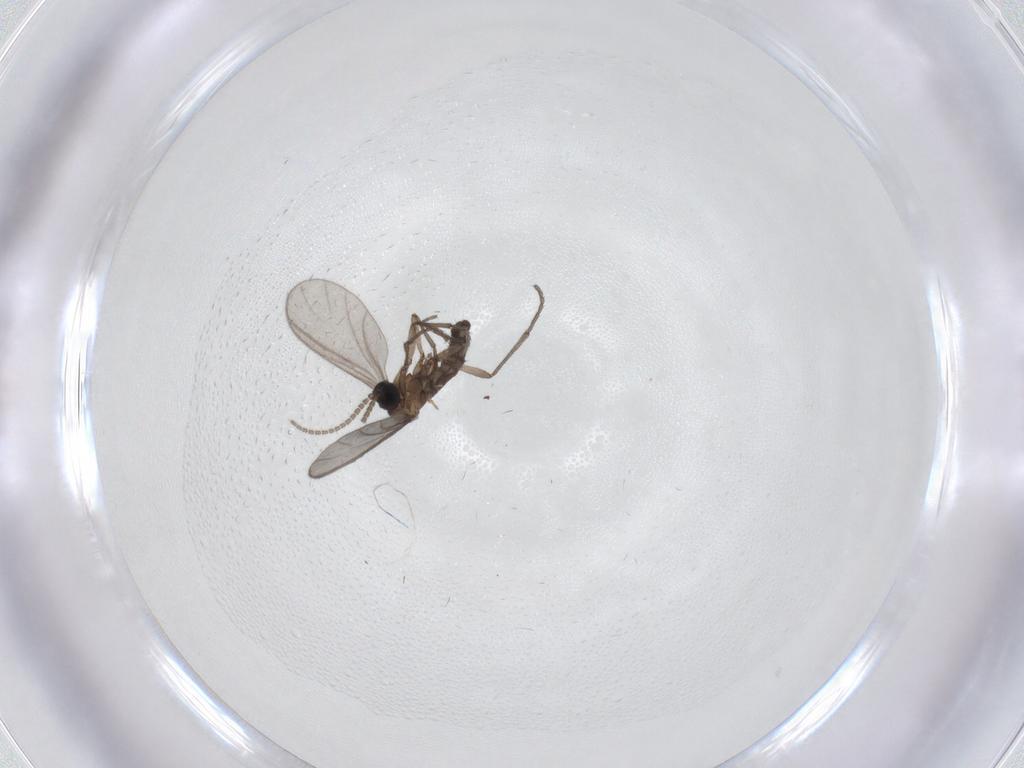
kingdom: Animalia
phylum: Arthropoda
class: Insecta
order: Diptera
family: Sciaridae
